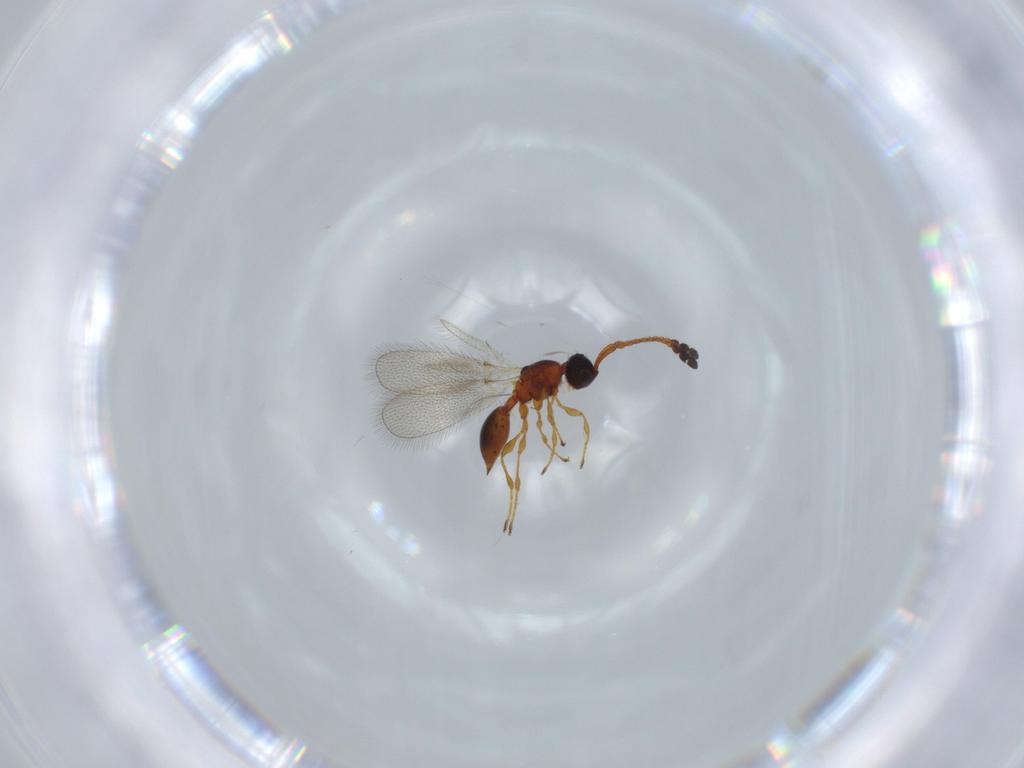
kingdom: Animalia
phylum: Arthropoda
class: Insecta
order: Hymenoptera
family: Diapriidae
